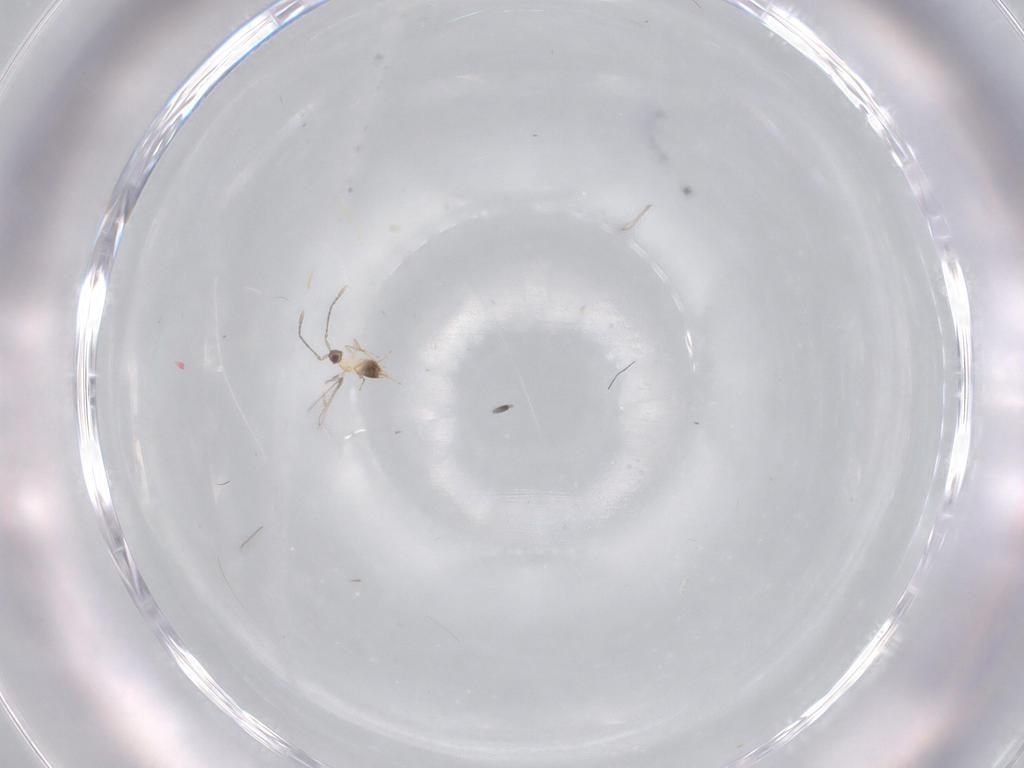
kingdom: Animalia
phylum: Arthropoda
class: Insecta
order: Hymenoptera
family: Mymaridae
